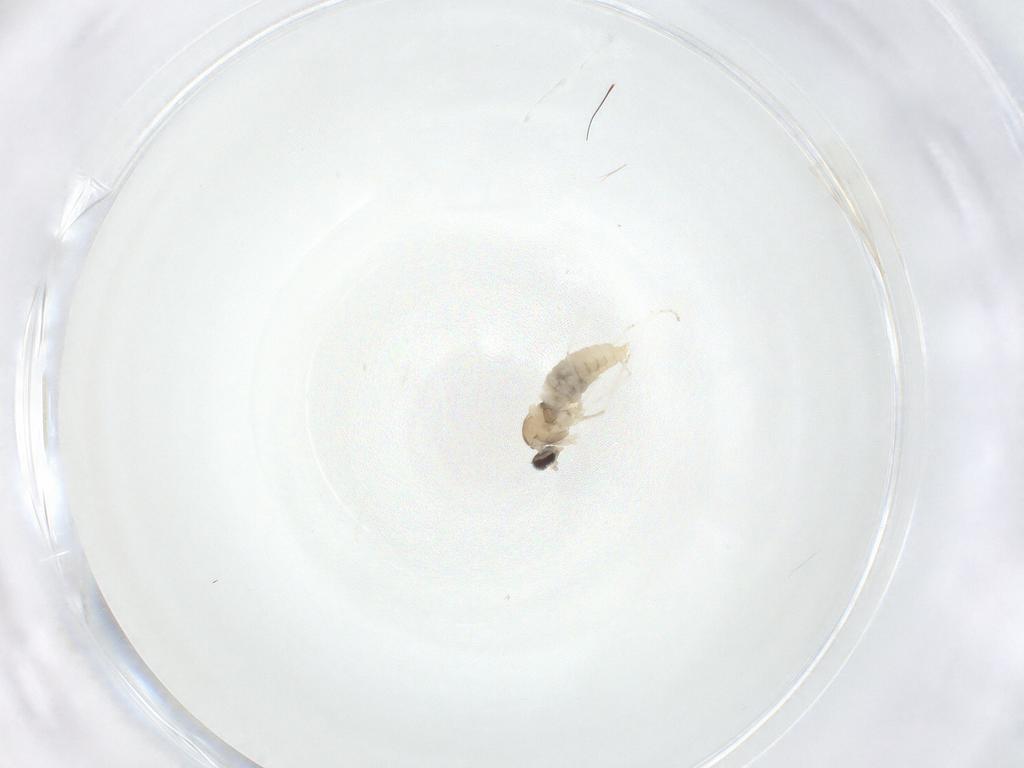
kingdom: Animalia
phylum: Arthropoda
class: Insecta
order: Diptera
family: Cecidomyiidae
